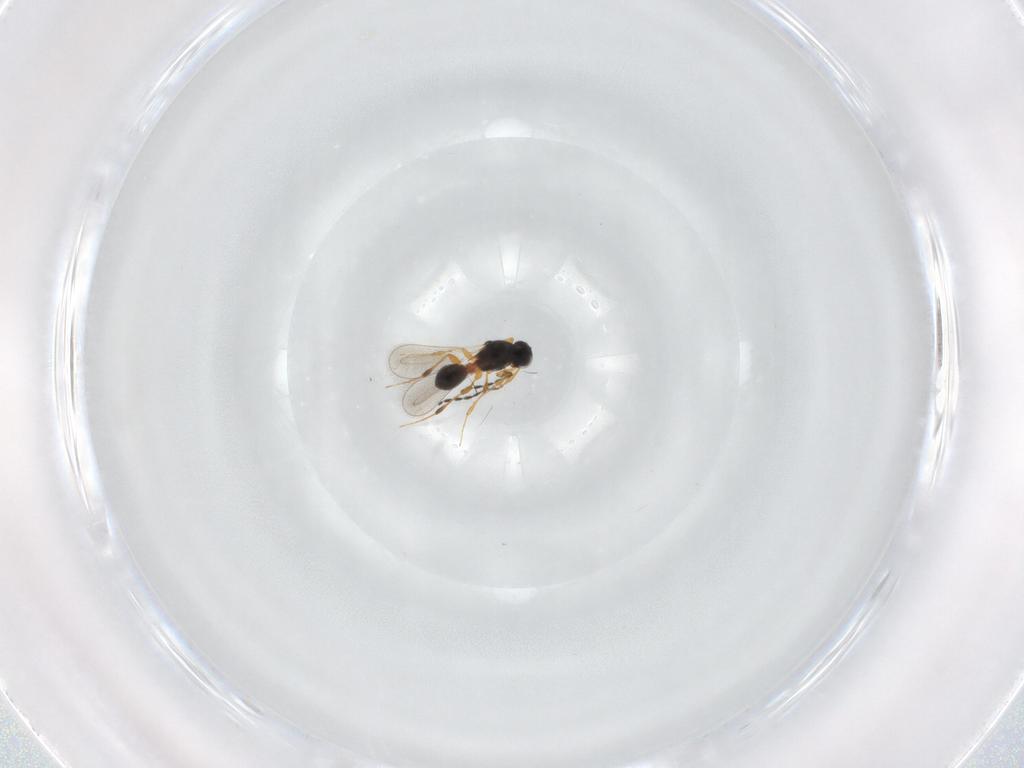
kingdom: Animalia
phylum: Arthropoda
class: Insecta
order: Hymenoptera
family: Platygastridae
